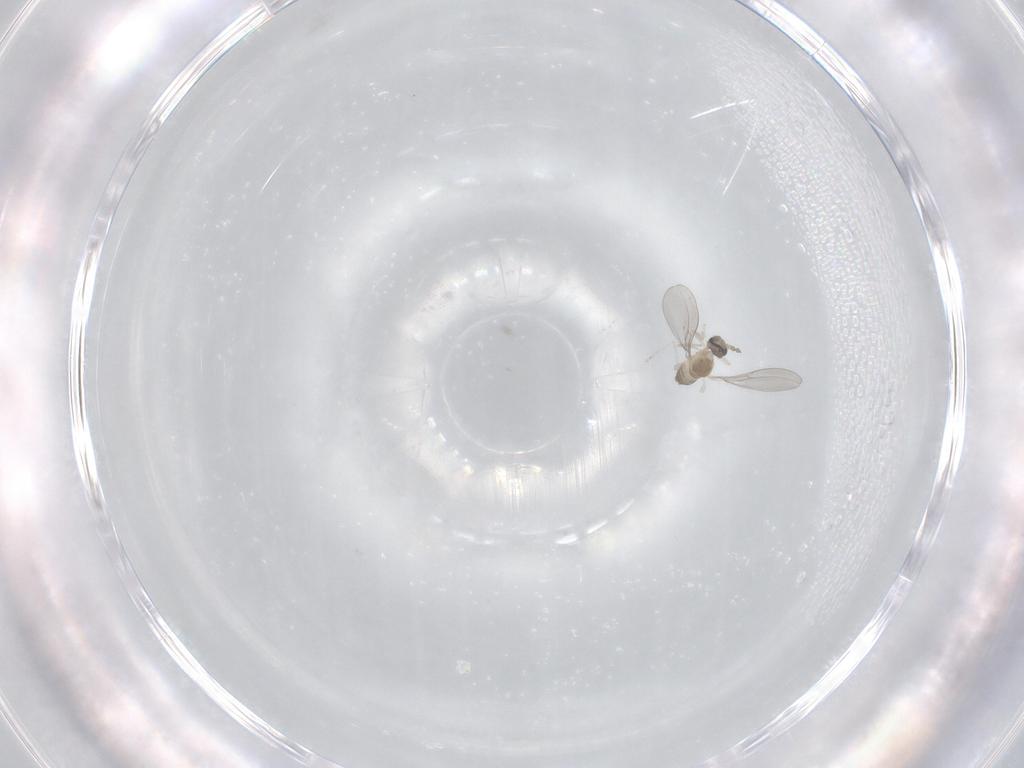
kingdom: Animalia
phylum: Arthropoda
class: Insecta
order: Diptera
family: Cecidomyiidae
